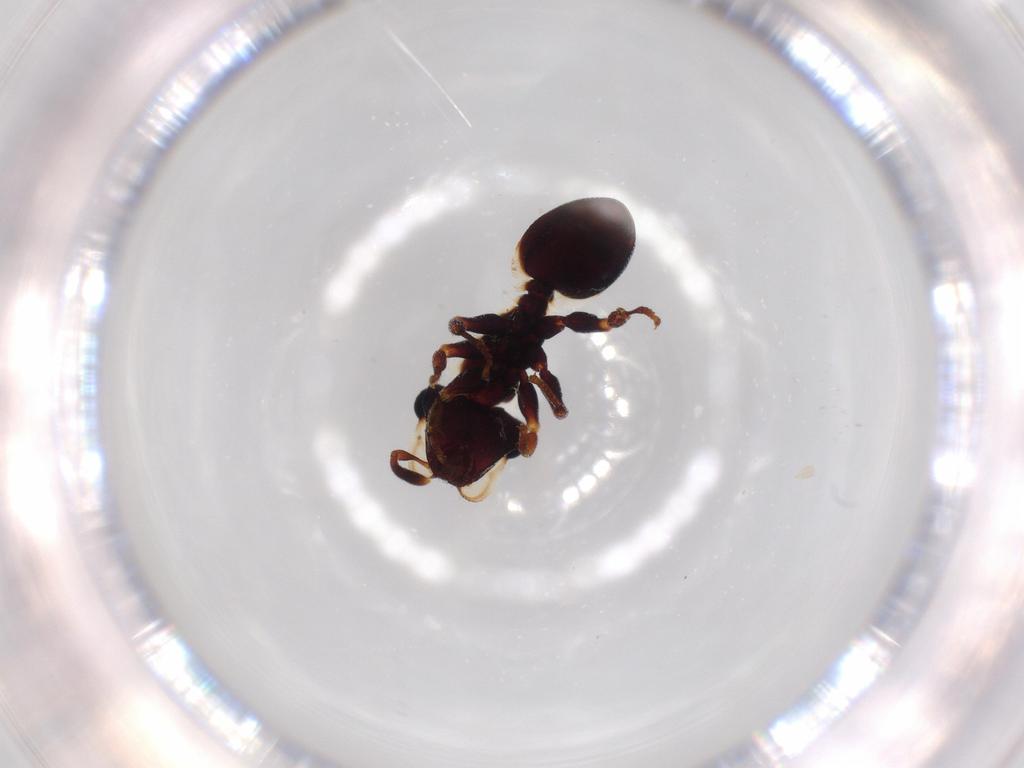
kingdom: Animalia
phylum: Arthropoda
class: Insecta
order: Hymenoptera
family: Formicidae
